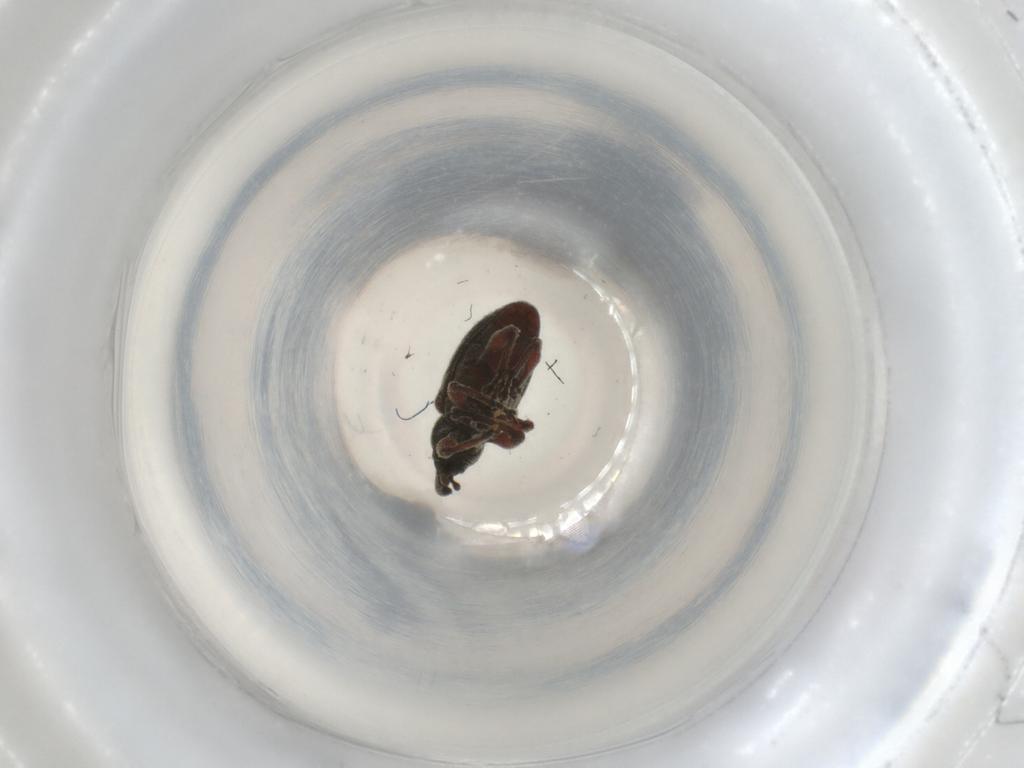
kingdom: Animalia
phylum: Arthropoda
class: Insecta
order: Coleoptera
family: Curculionidae
